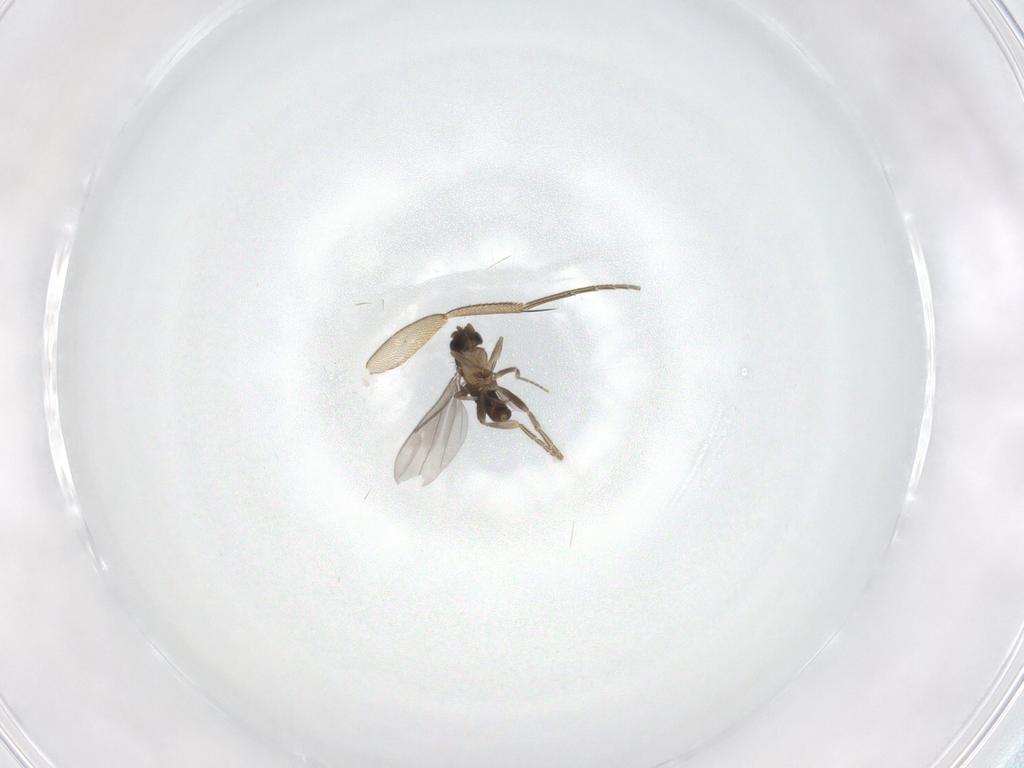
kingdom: Animalia
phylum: Arthropoda
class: Insecta
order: Diptera
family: Phoridae
